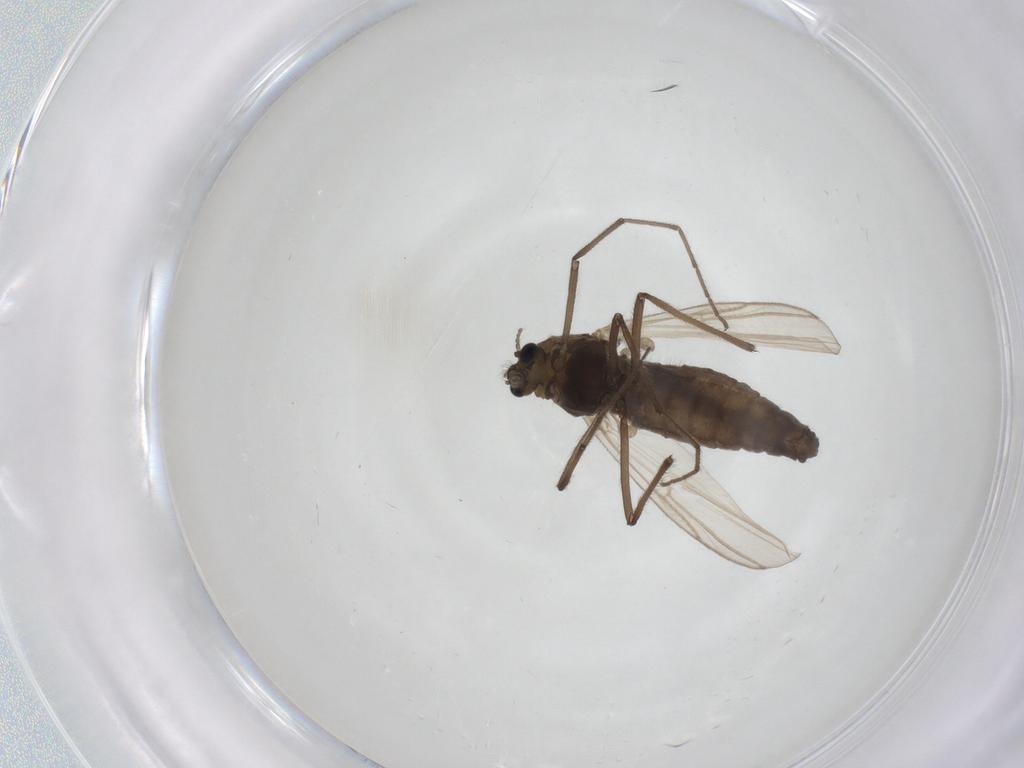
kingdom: Animalia
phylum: Arthropoda
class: Insecta
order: Diptera
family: Chironomidae
